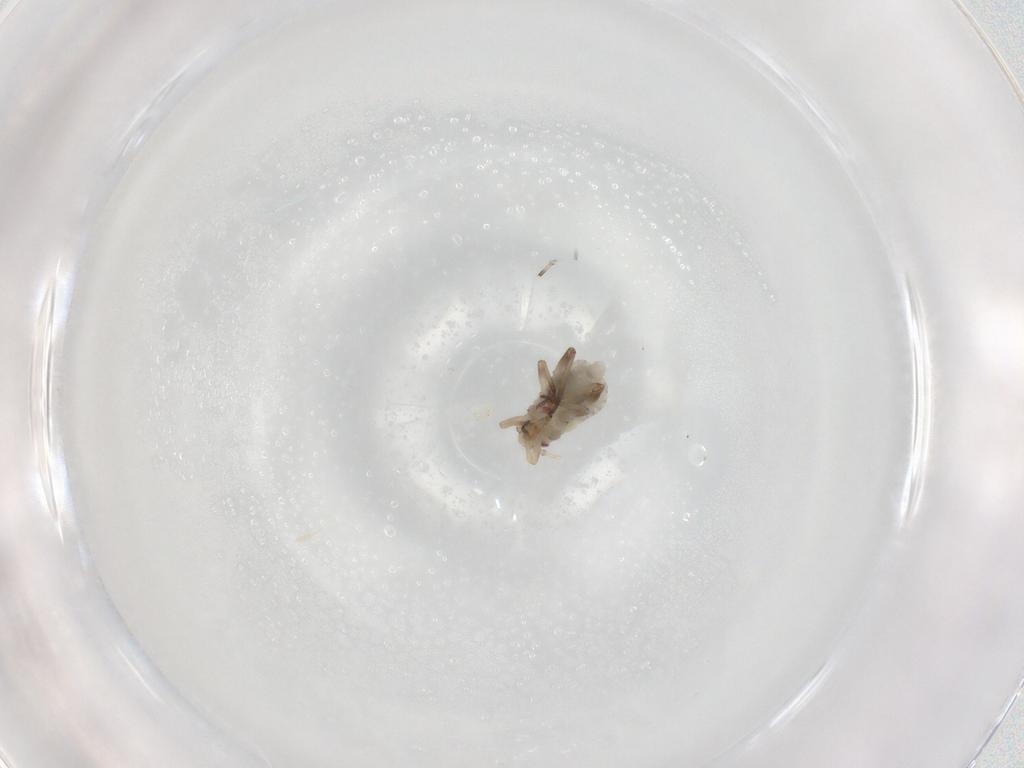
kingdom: Animalia
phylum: Arthropoda
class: Insecta
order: Hemiptera
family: Aphididae
